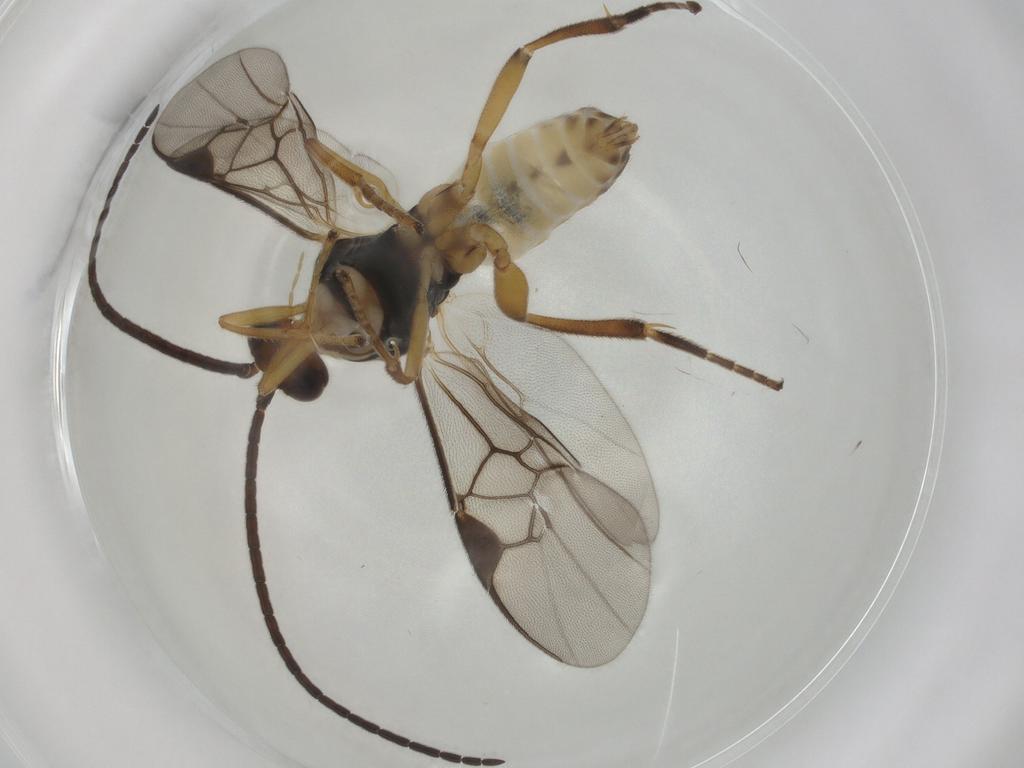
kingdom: Animalia
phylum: Arthropoda
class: Insecta
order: Hymenoptera
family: Braconidae
